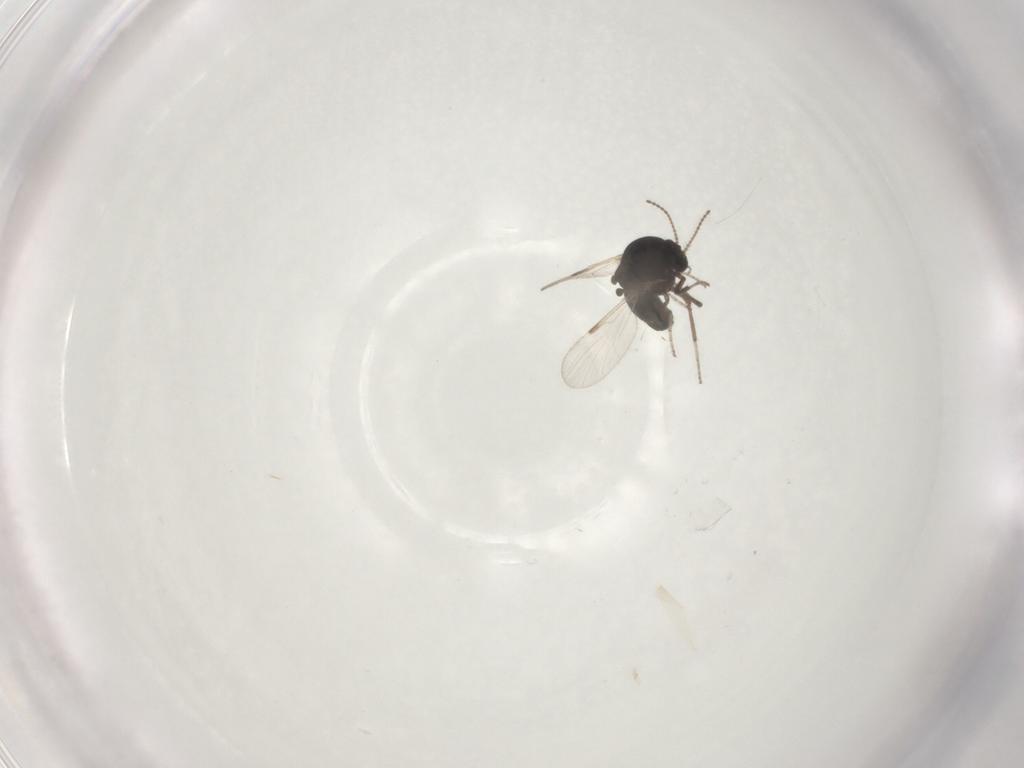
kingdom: Animalia
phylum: Arthropoda
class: Insecta
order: Diptera
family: Ceratopogonidae
